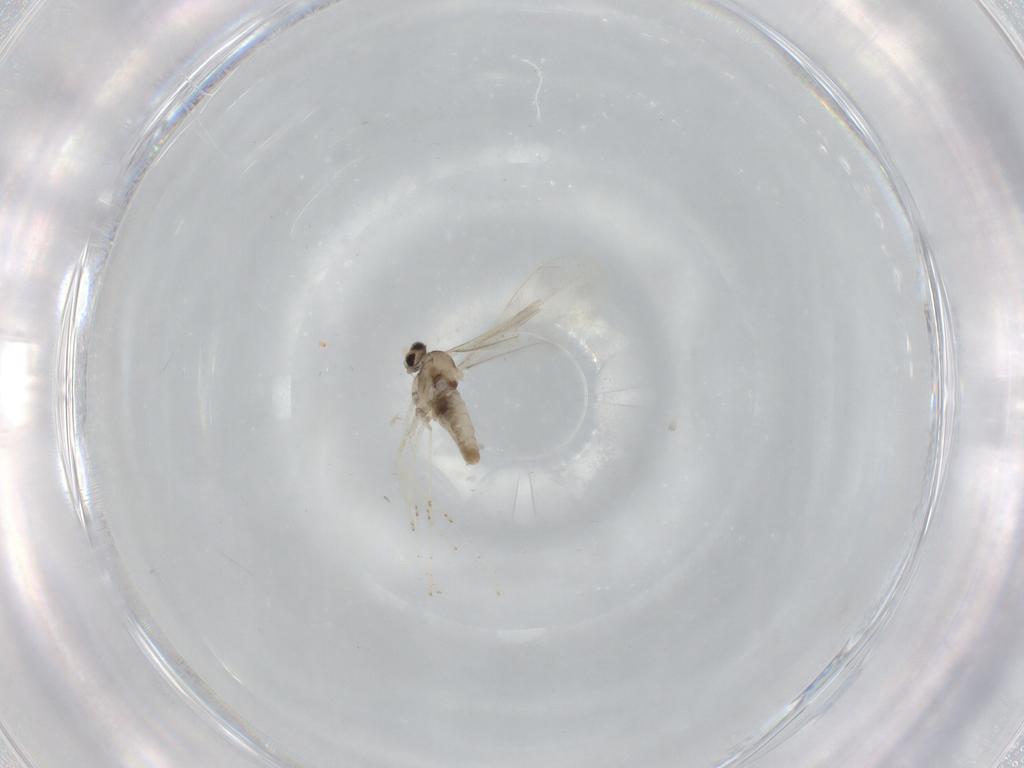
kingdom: Animalia
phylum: Arthropoda
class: Insecta
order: Diptera
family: Cecidomyiidae
